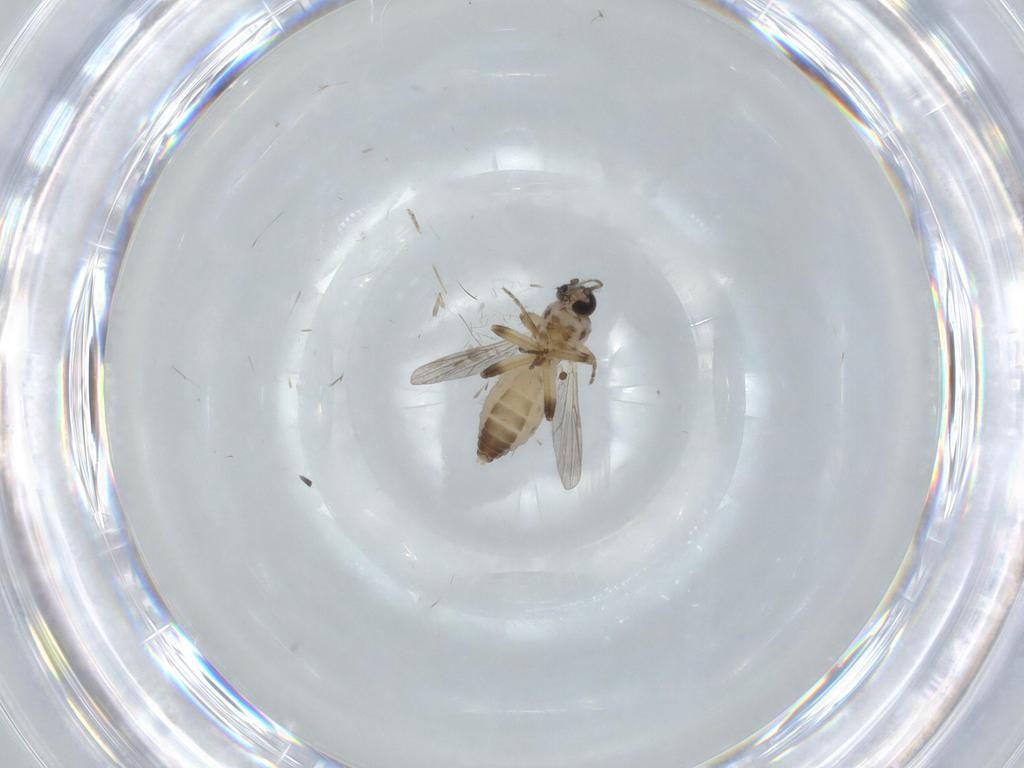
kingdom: Animalia
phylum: Arthropoda
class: Insecta
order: Diptera
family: Ceratopogonidae
